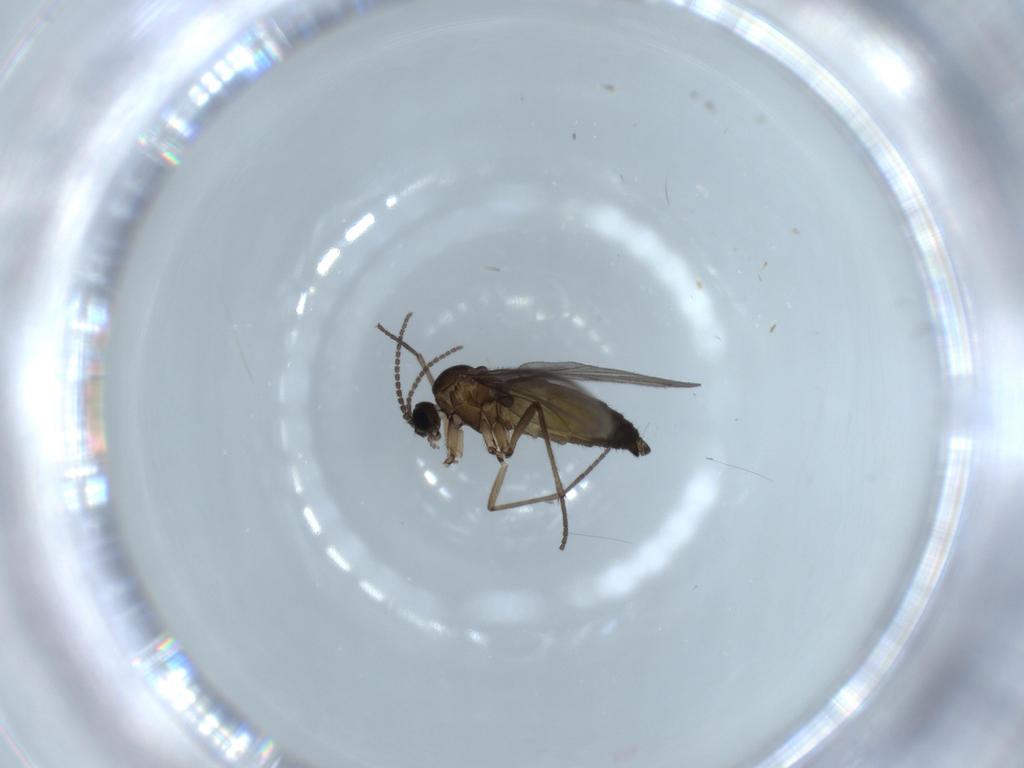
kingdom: Animalia
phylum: Arthropoda
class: Insecta
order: Diptera
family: Sciaridae
